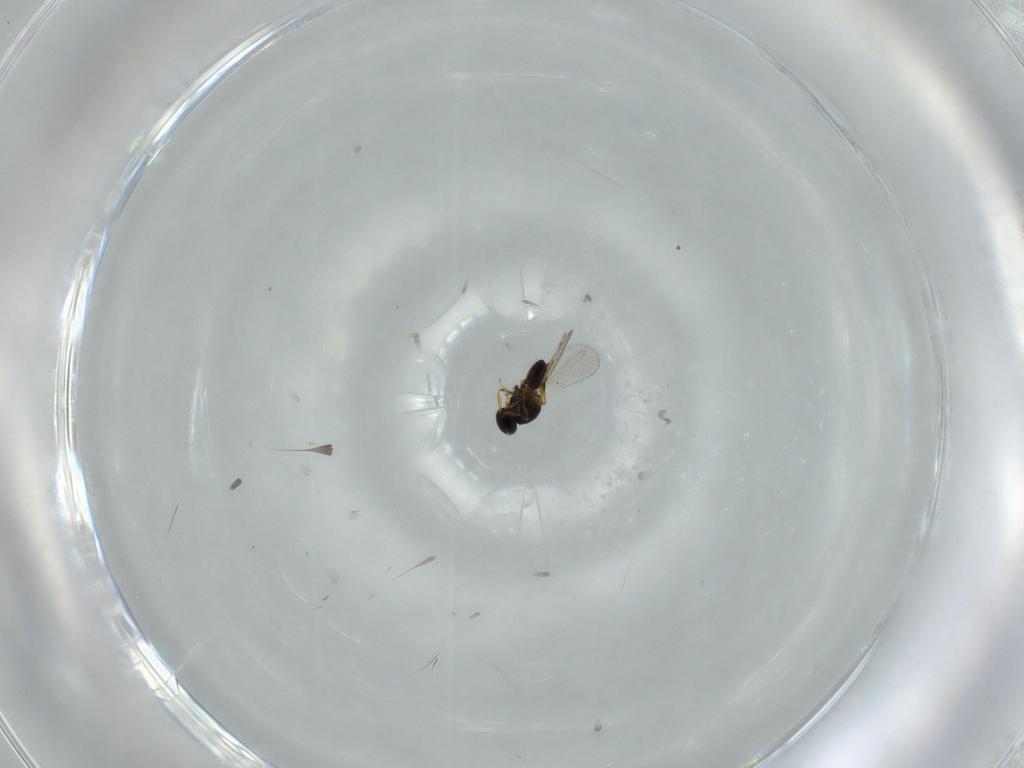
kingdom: Animalia
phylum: Arthropoda
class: Insecta
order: Hymenoptera
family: Platygastridae
